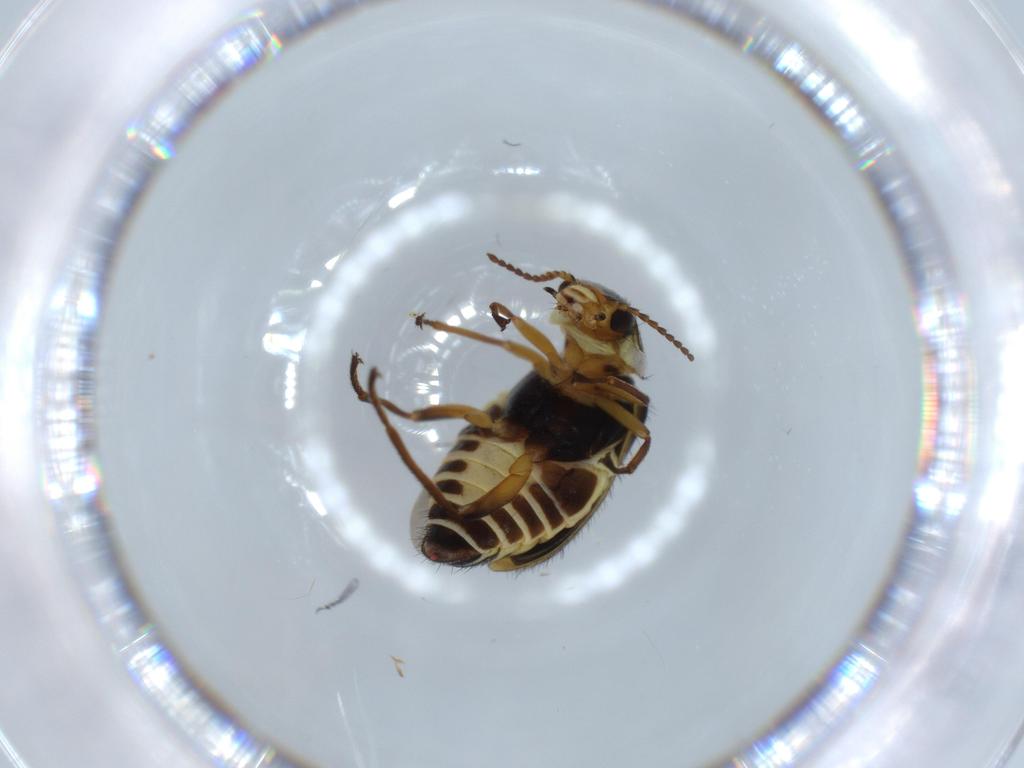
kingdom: Animalia
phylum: Arthropoda
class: Insecta
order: Coleoptera
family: Melyridae
